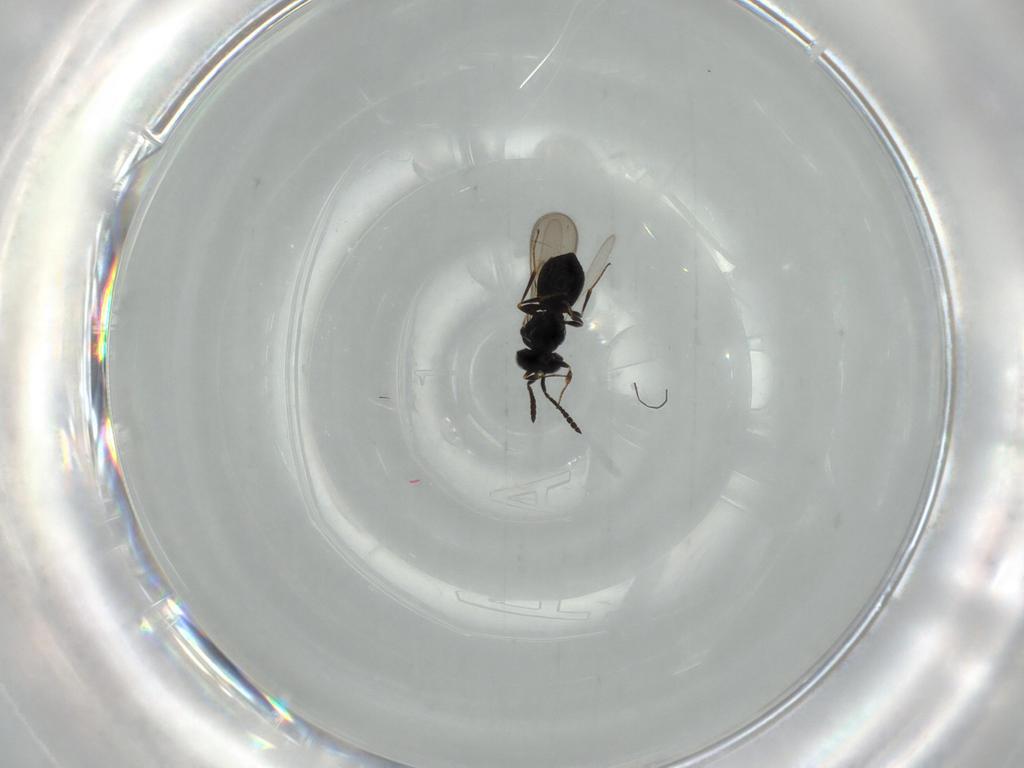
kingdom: Animalia
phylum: Arthropoda
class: Insecta
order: Hymenoptera
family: Scelionidae
